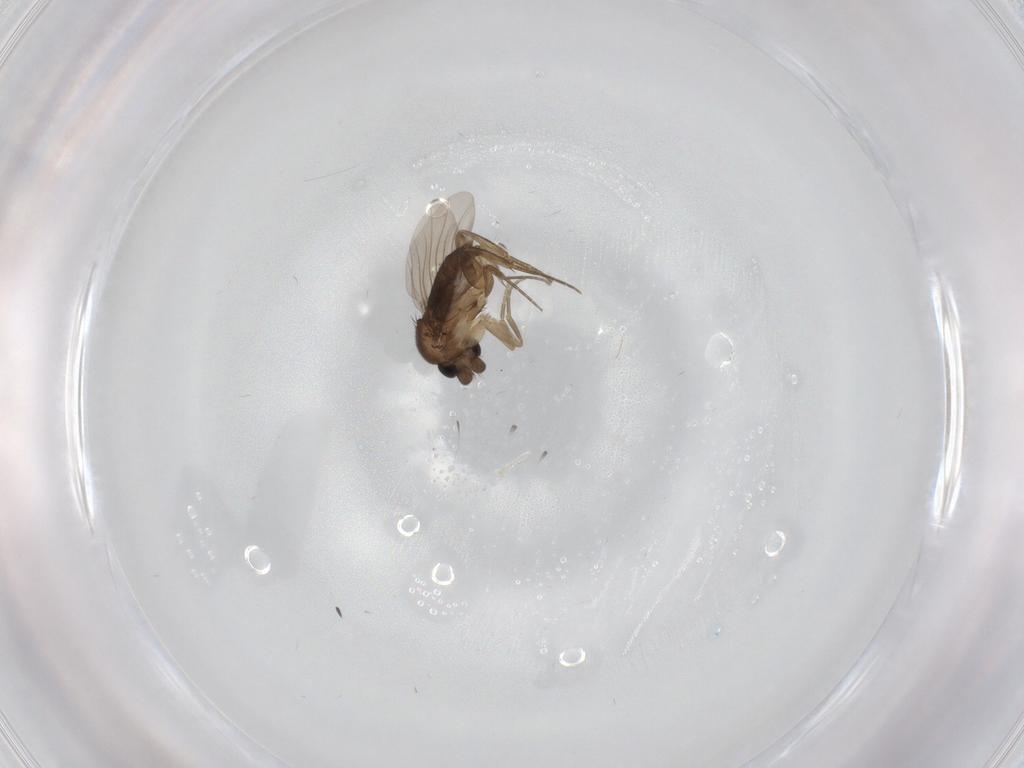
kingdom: Animalia
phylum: Arthropoda
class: Insecta
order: Diptera
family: Phoridae
